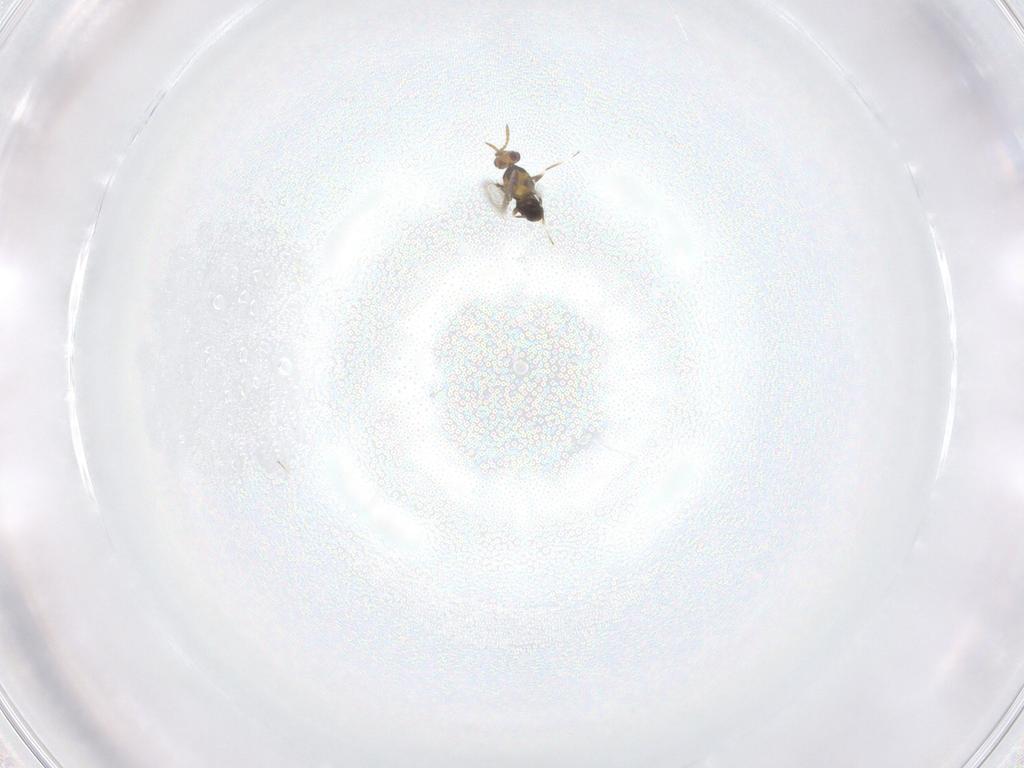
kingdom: Animalia
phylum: Arthropoda
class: Insecta
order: Hymenoptera
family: Aphelinidae
